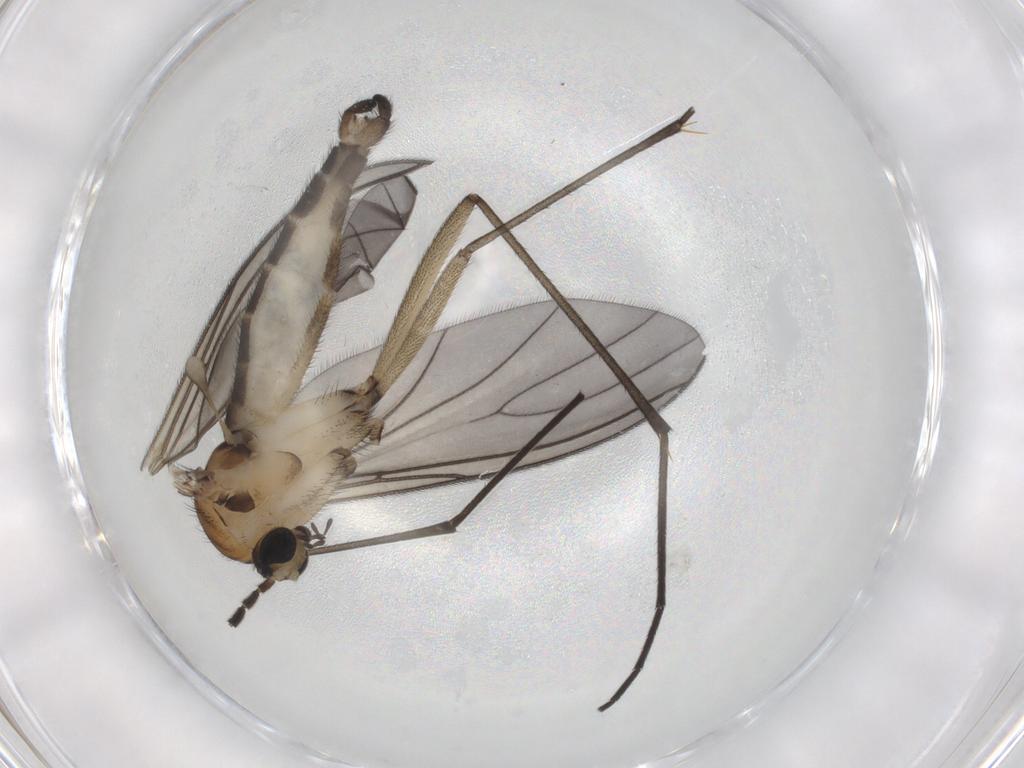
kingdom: Animalia
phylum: Arthropoda
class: Insecta
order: Diptera
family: Sciaridae
